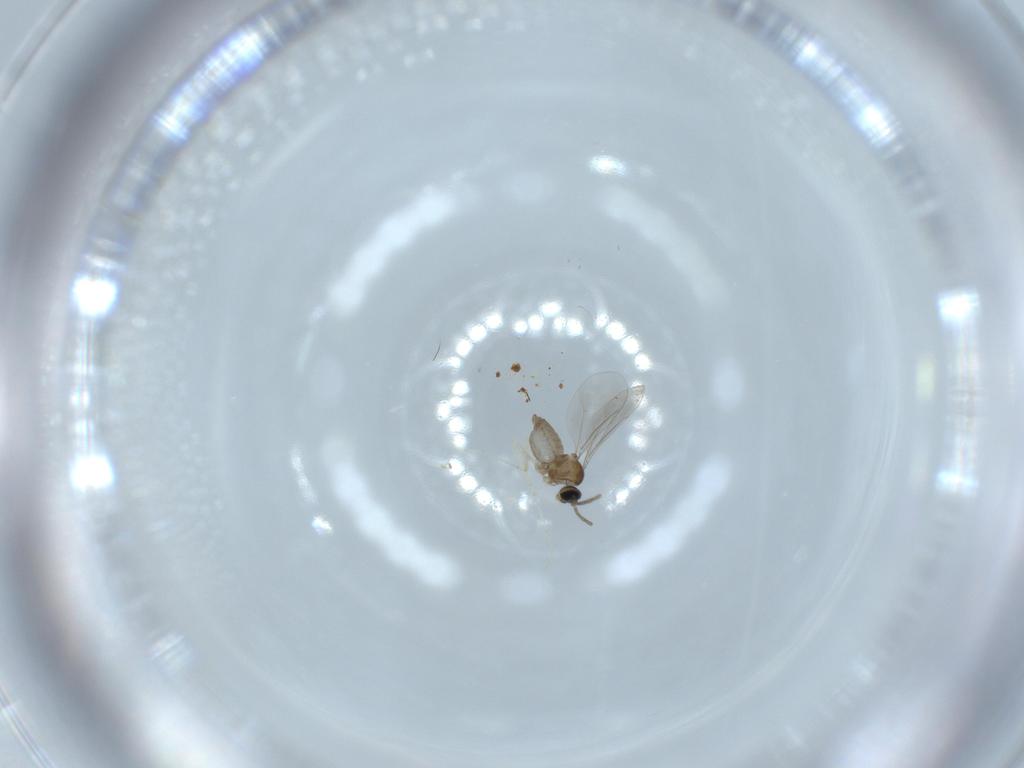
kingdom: Animalia
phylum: Arthropoda
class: Insecta
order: Diptera
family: Cecidomyiidae
